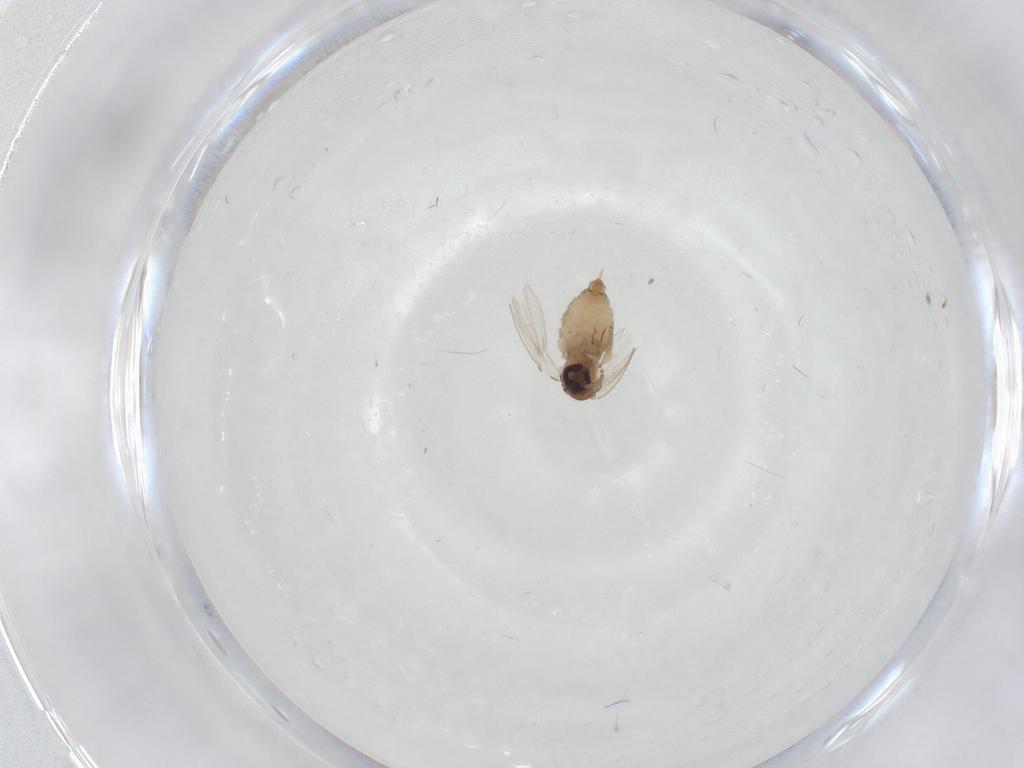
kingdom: Animalia
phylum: Arthropoda
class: Insecta
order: Diptera
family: Psychodidae
